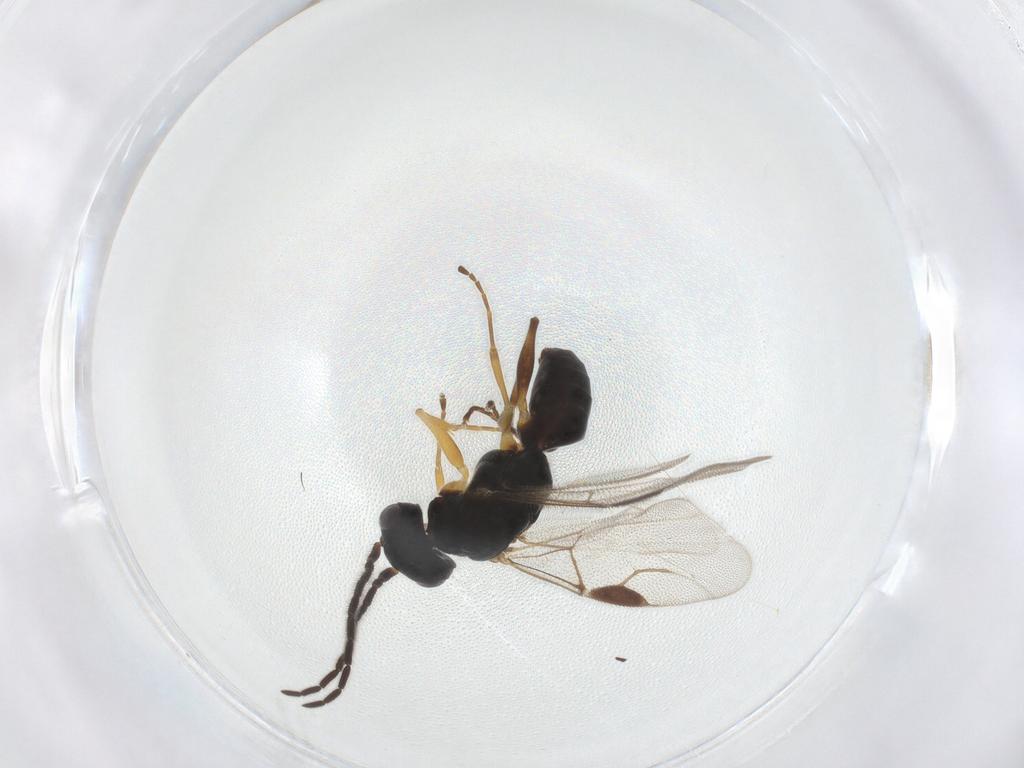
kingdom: Animalia
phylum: Arthropoda
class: Insecta
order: Hymenoptera
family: Dryinidae
